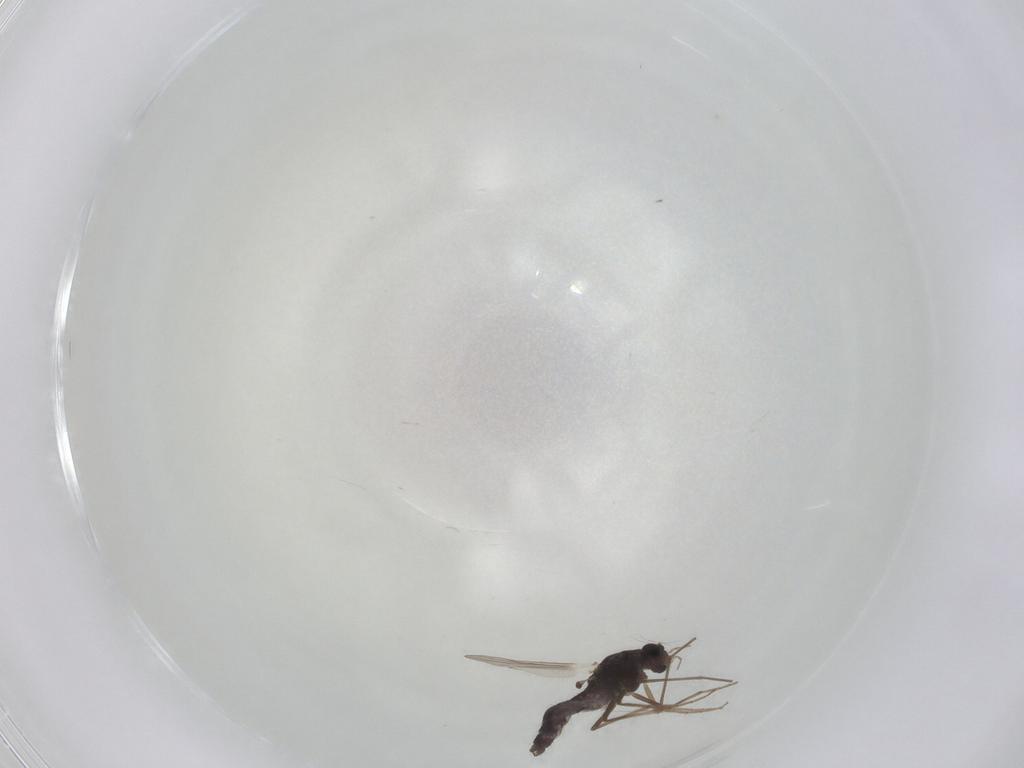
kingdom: Animalia
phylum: Arthropoda
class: Insecta
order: Diptera
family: Chironomidae
